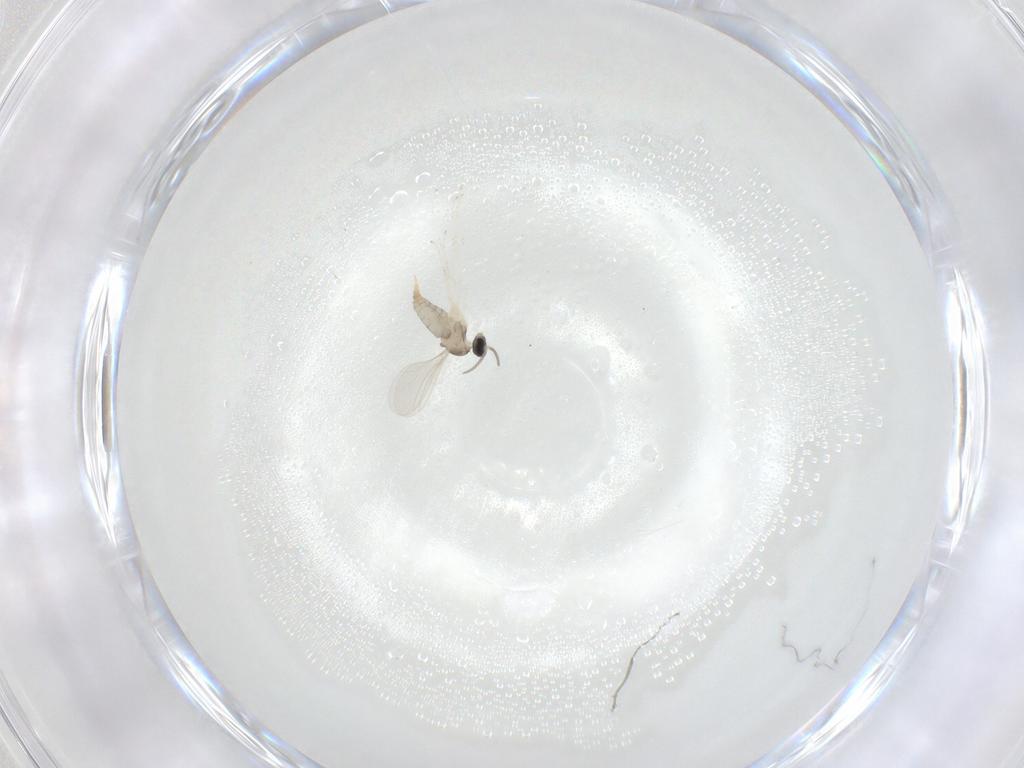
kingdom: Animalia
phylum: Arthropoda
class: Insecta
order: Diptera
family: Cecidomyiidae
